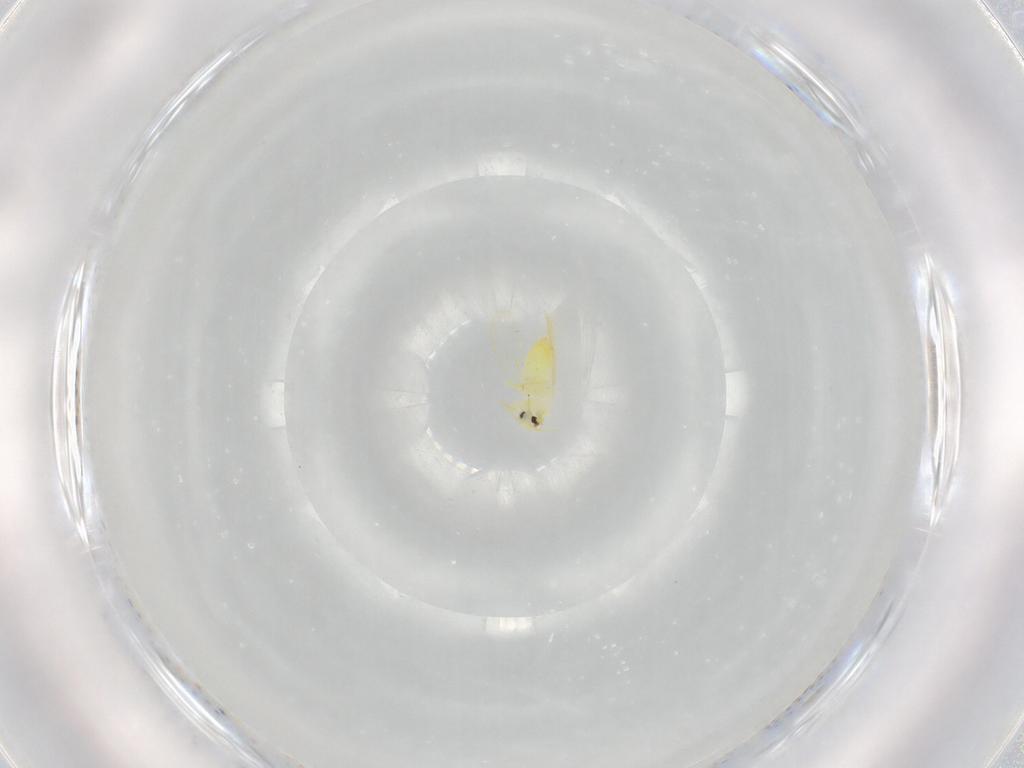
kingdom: Animalia
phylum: Arthropoda
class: Insecta
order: Hemiptera
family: Aleyrodidae
